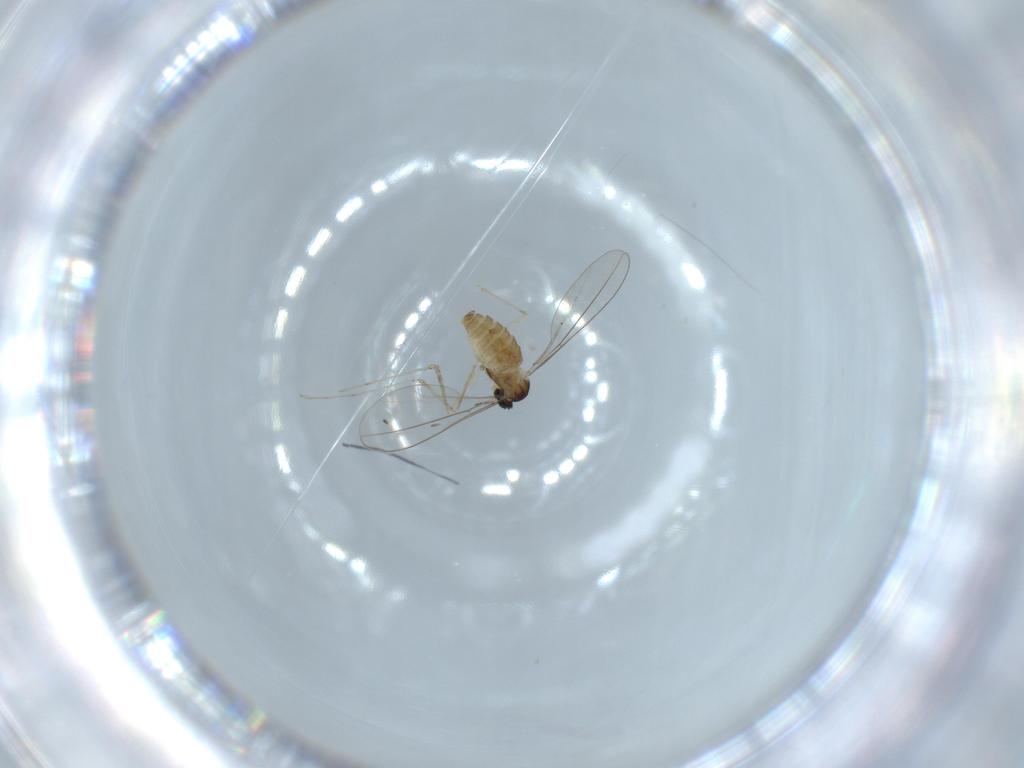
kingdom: Animalia
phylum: Arthropoda
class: Insecta
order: Diptera
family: Cecidomyiidae
